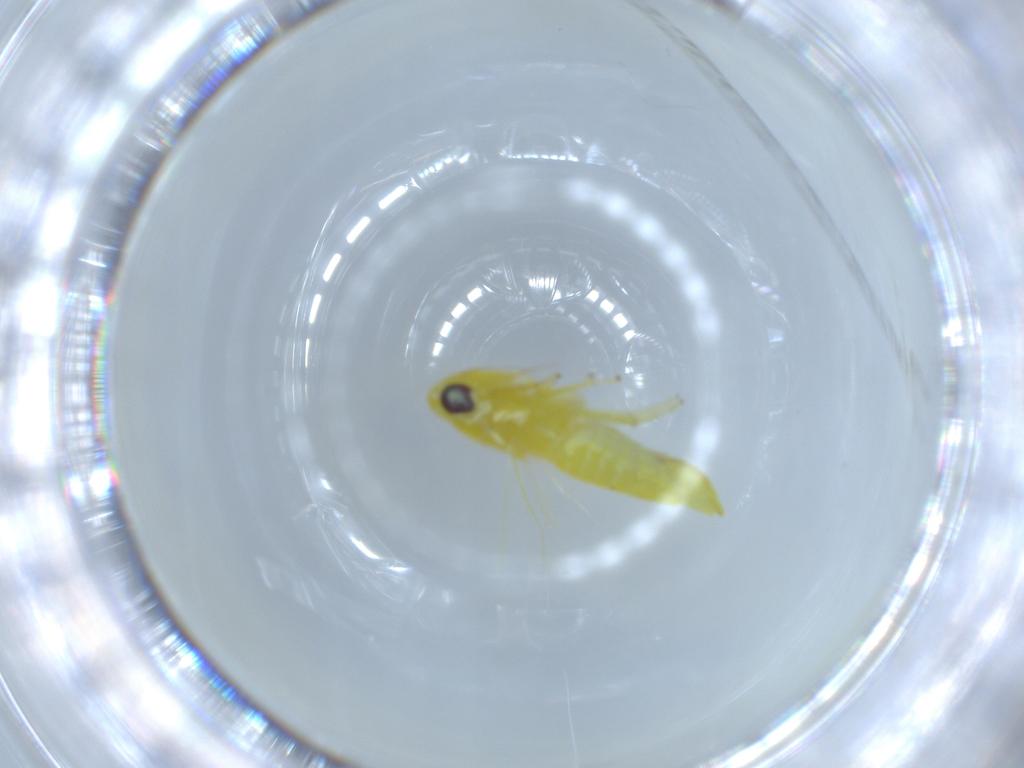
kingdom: Animalia
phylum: Arthropoda
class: Insecta
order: Hemiptera
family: Cicadellidae
